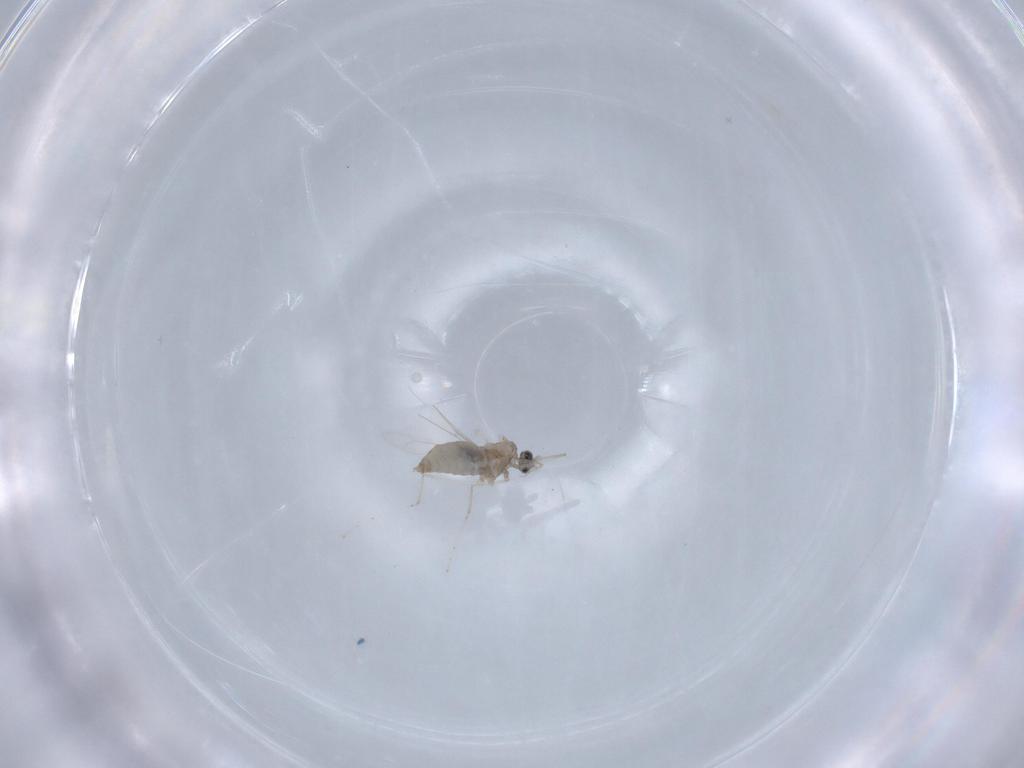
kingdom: Animalia
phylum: Arthropoda
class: Insecta
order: Diptera
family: Cecidomyiidae
